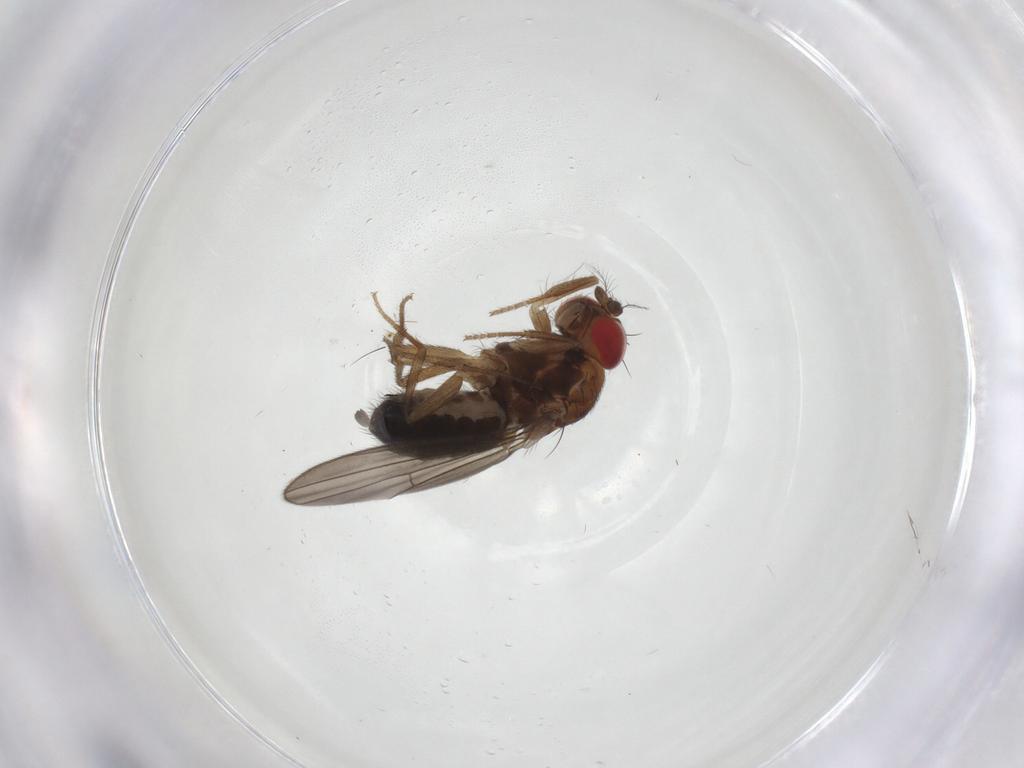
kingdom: Animalia
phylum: Arthropoda
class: Insecta
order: Diptera
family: Drosophilidae
